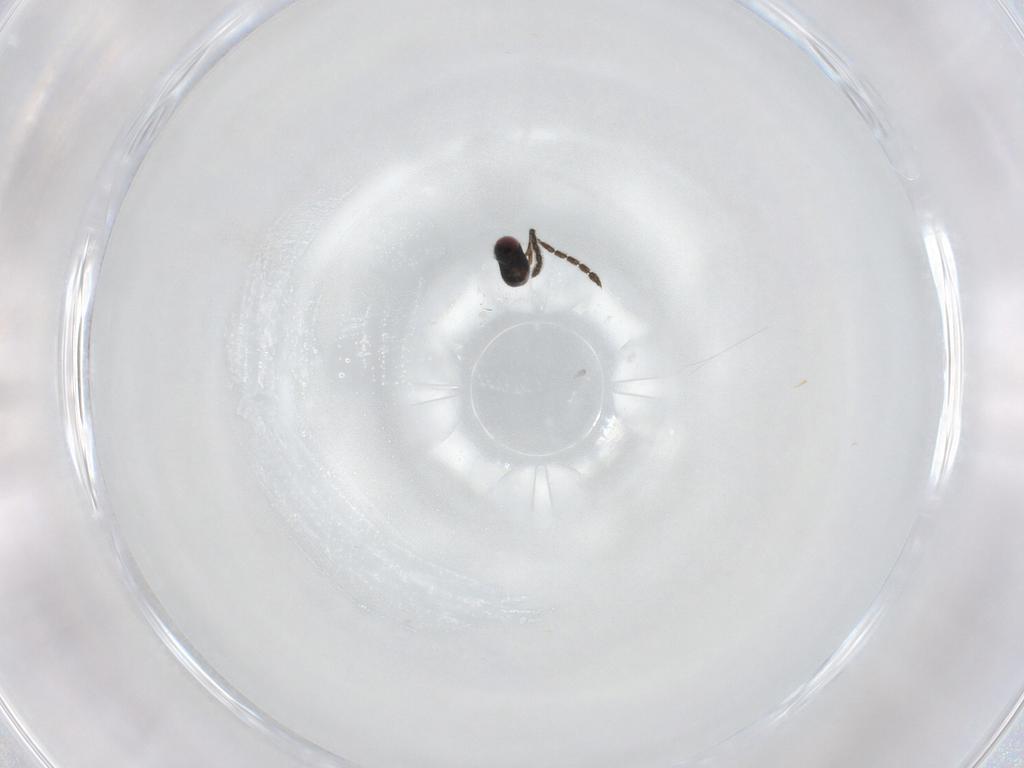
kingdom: Animalia
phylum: Arthropoda
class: Insecta
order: Hymenoptera
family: Eulophidae
